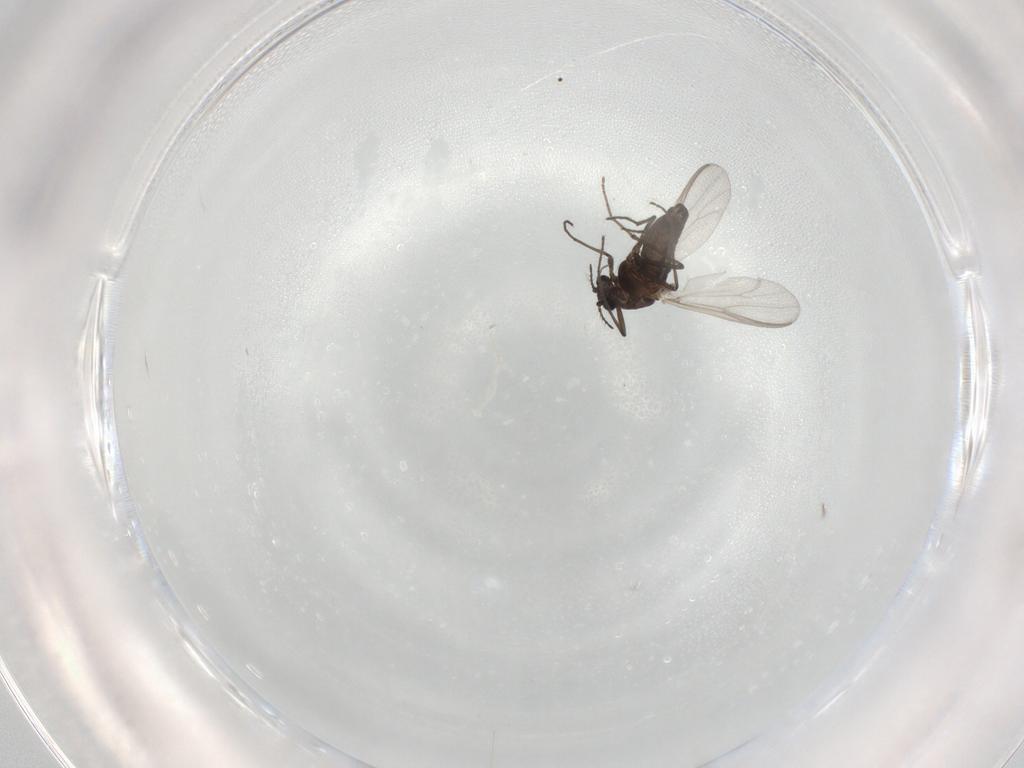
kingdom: Animalia
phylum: Arthropoda
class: Insecta
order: Diptera
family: Chironomidae
